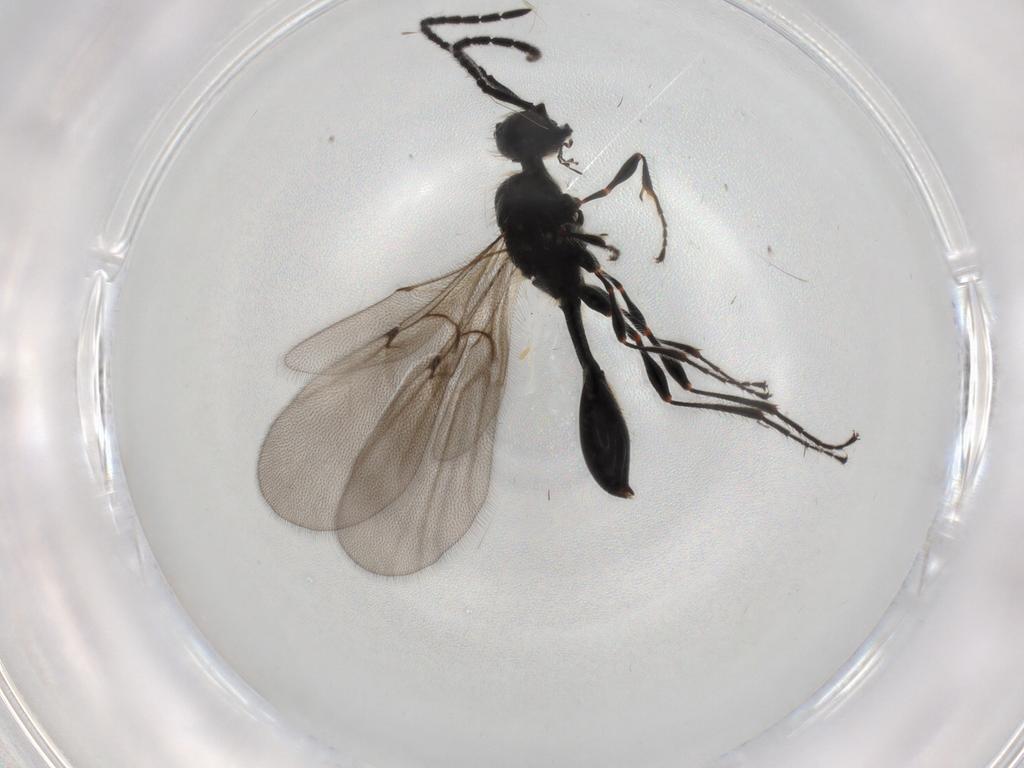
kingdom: Animalia
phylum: Arthropoda
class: Insecta
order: Hymenoptera
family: Diapriidae
